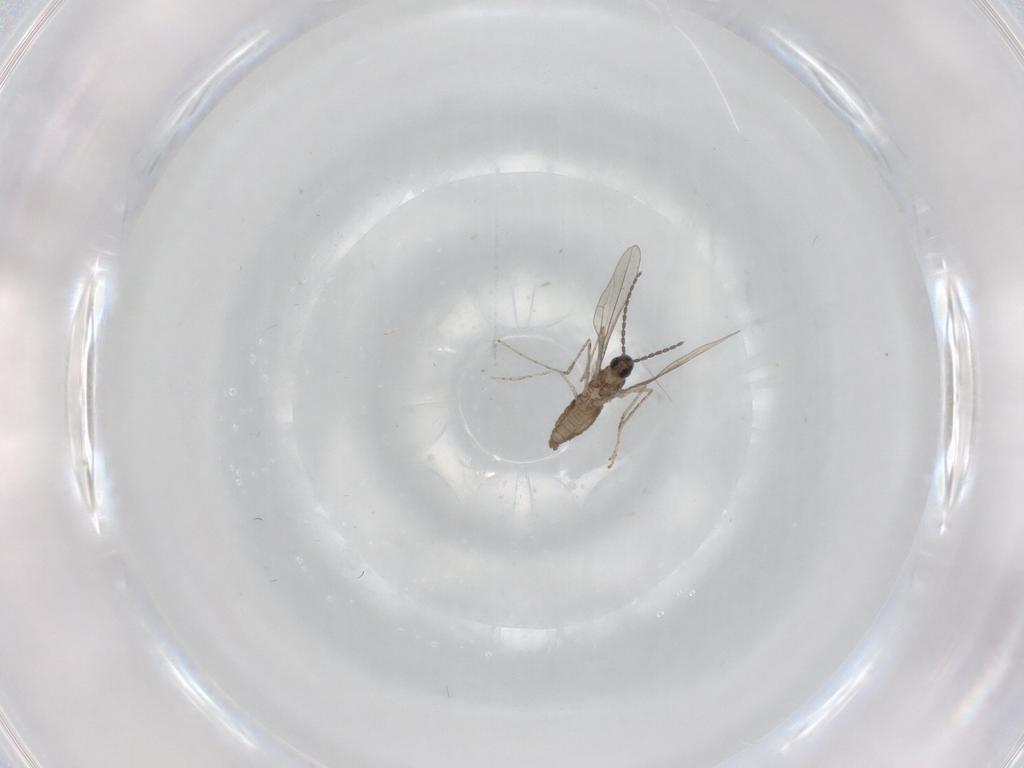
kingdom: Animalia
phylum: Arthropoda
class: Insecta
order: Diptera
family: Cecidomyiidae
